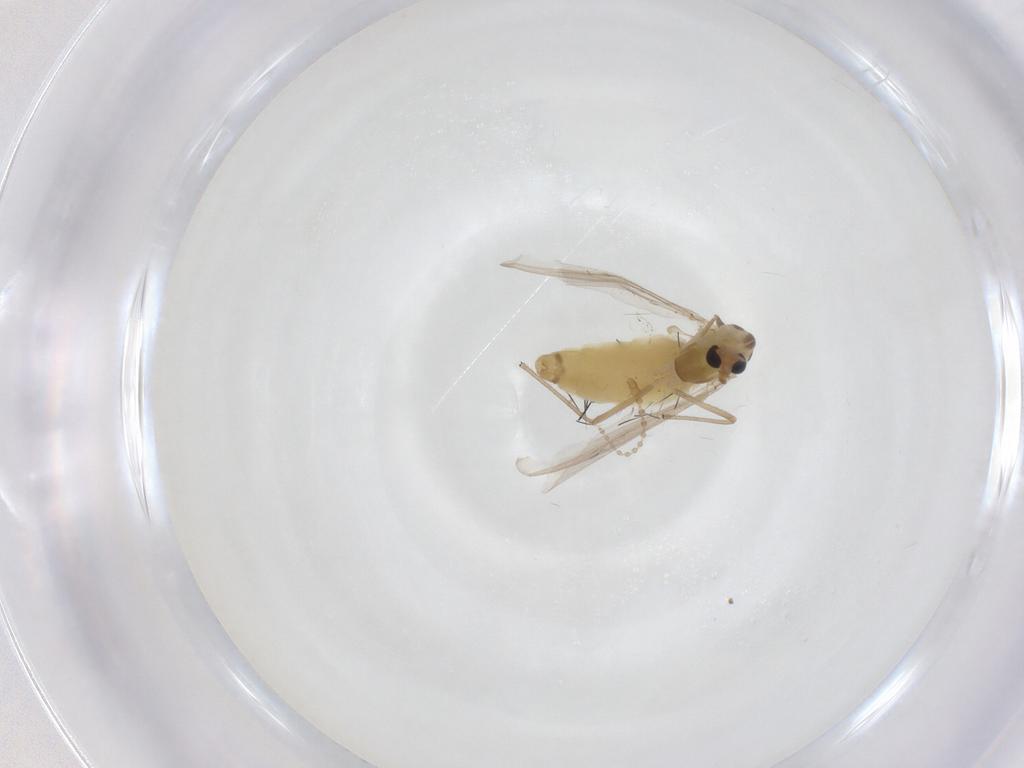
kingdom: Animalia
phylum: Arthropoda
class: Insecta
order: Diptera
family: Chironomidae
